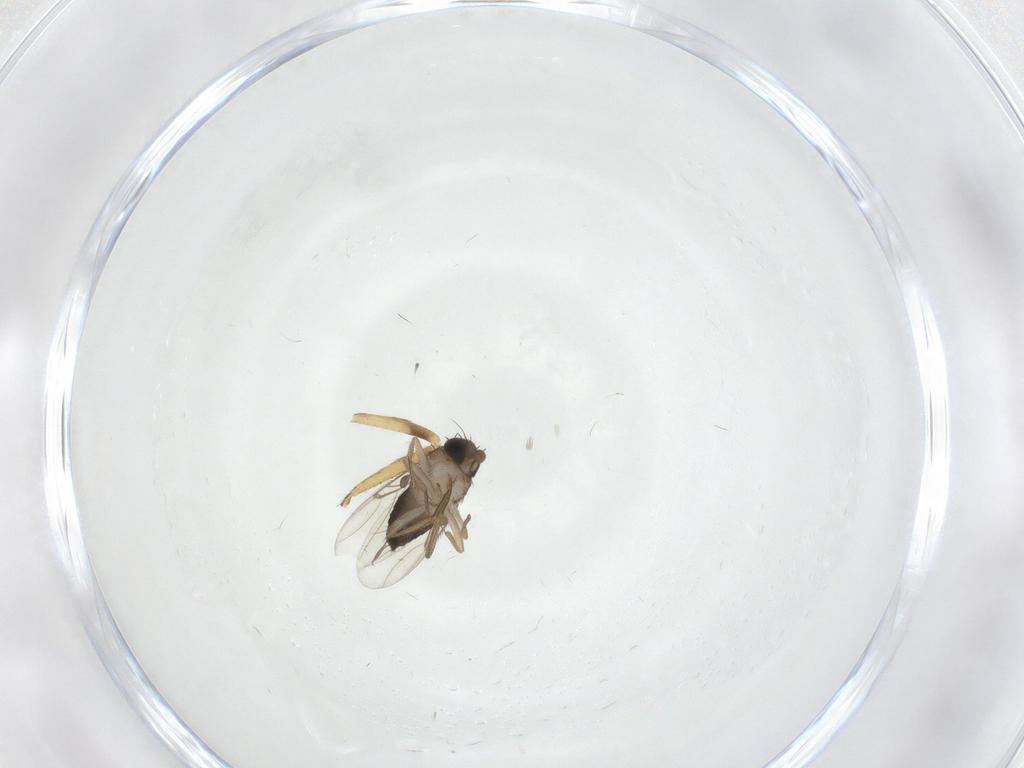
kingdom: Animalia
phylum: Arthropoda
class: Insecta
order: Diptera
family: Ceratopogonidae
